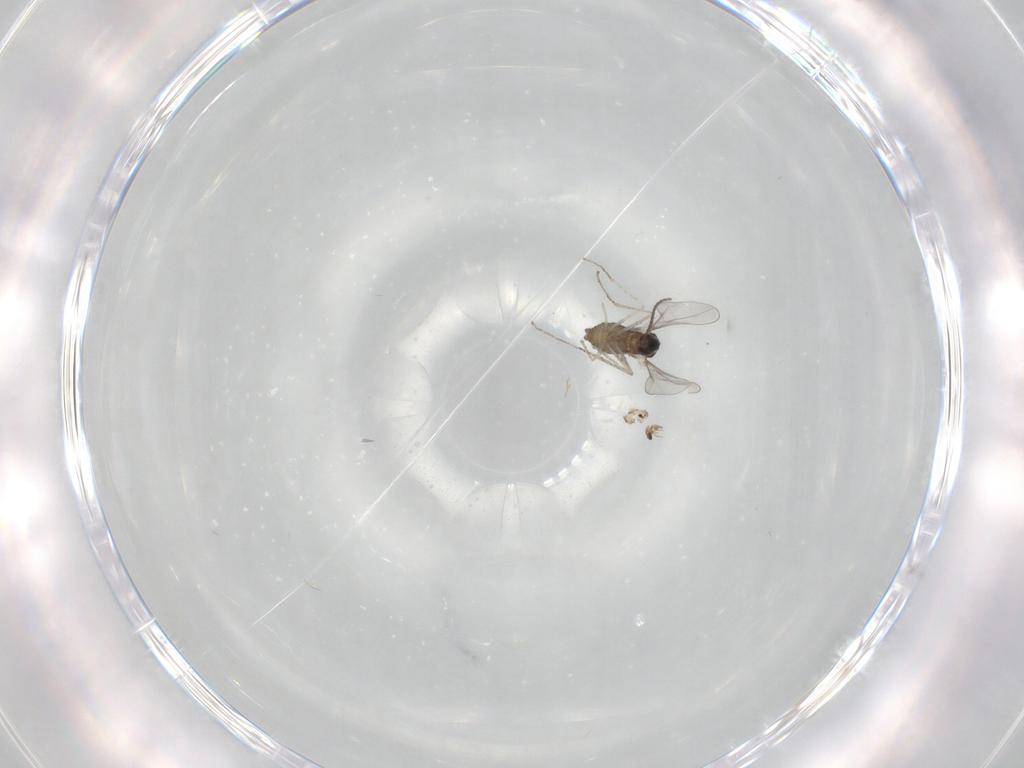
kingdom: Animalia
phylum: Arthropoda
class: Insecta
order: Diptera
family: Cecidomyiidae
